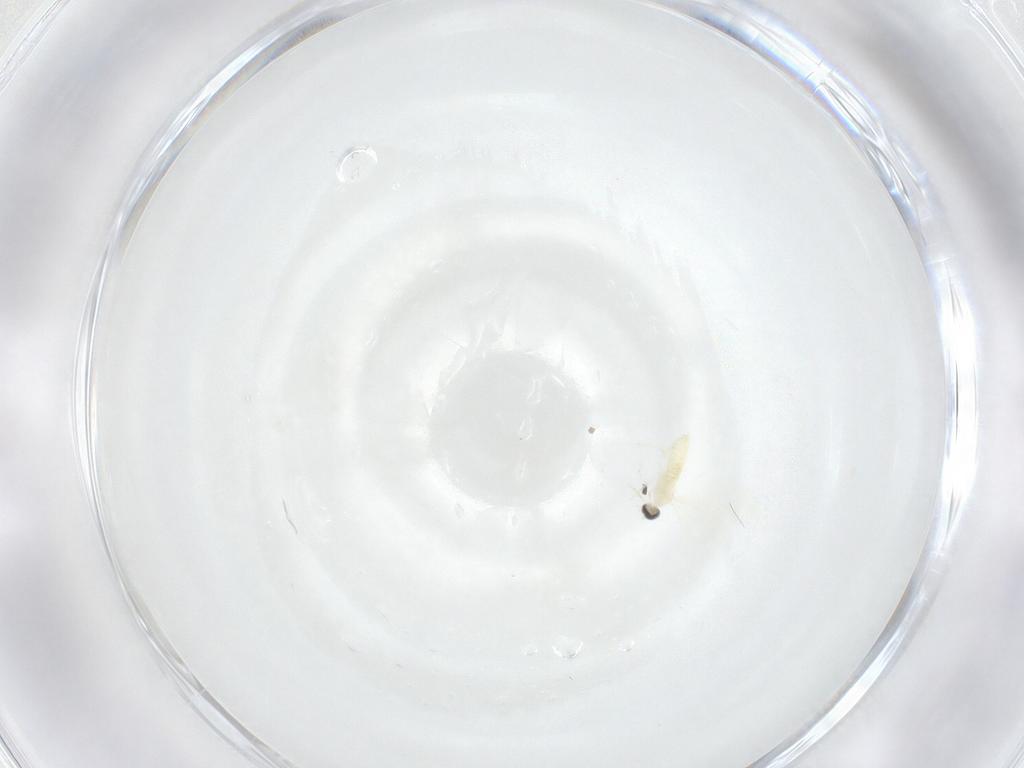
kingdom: Animalia
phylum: Arthropoda
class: Insecta
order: Diptera
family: Cecidomyiidae
